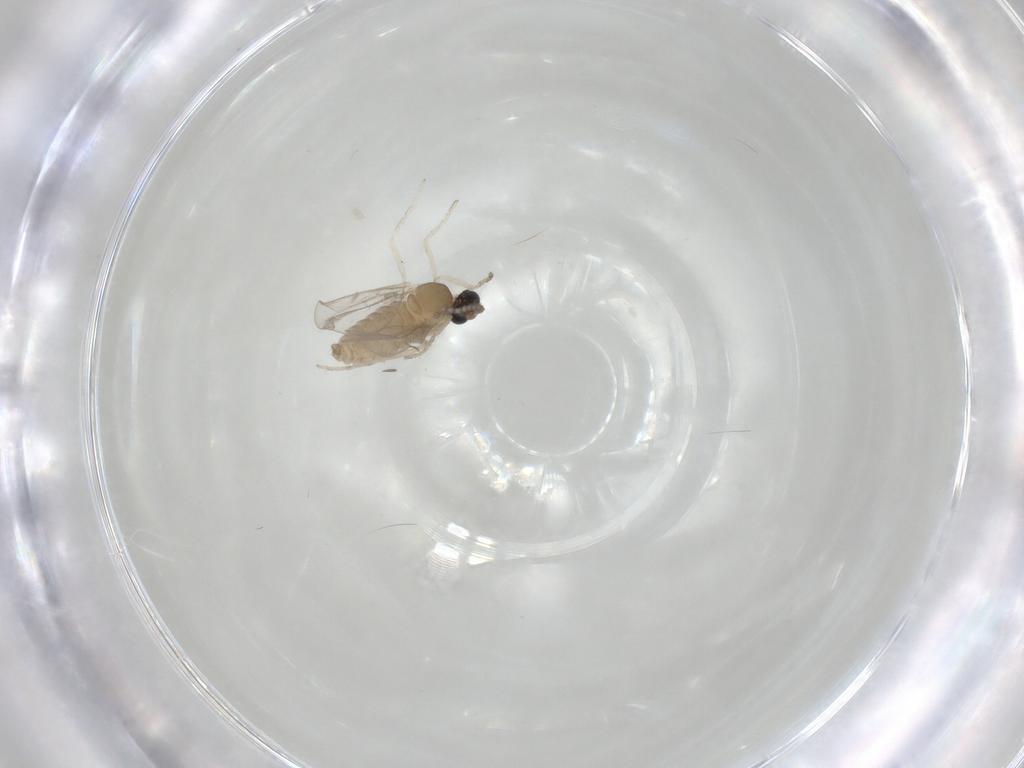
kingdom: Animalia
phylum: Arthropoda
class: Insecta
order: Diptera
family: Cecidomyiidae
